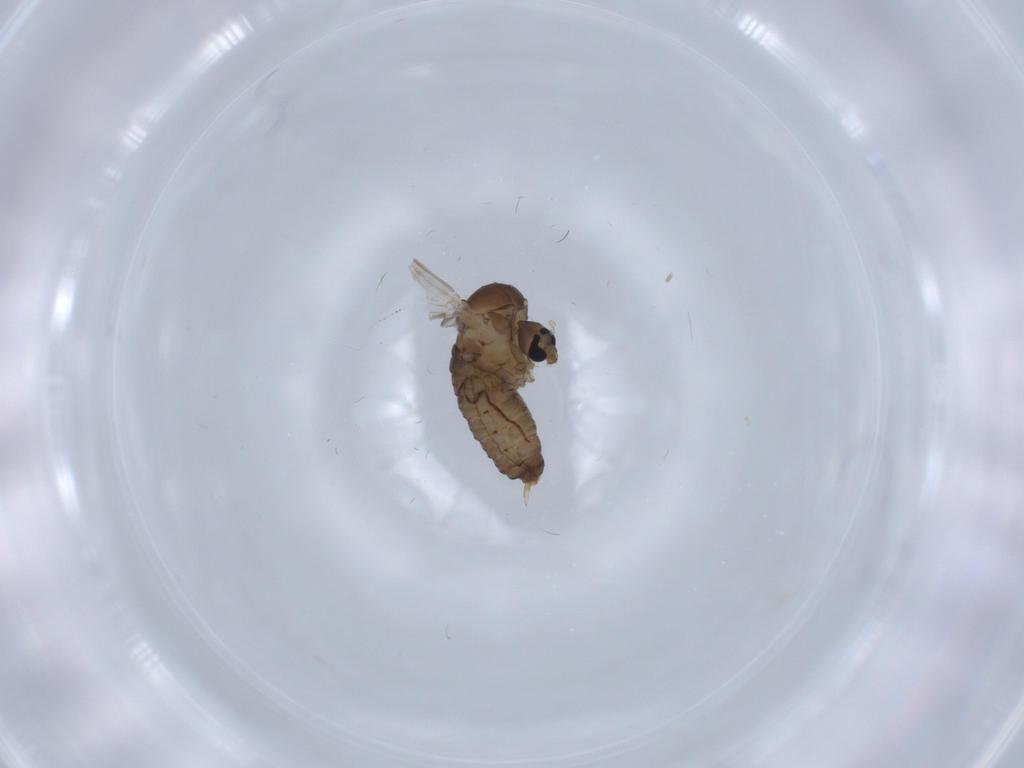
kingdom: Animalia
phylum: Arthropoda
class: Insecta
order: Diptera
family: Psychodidae
